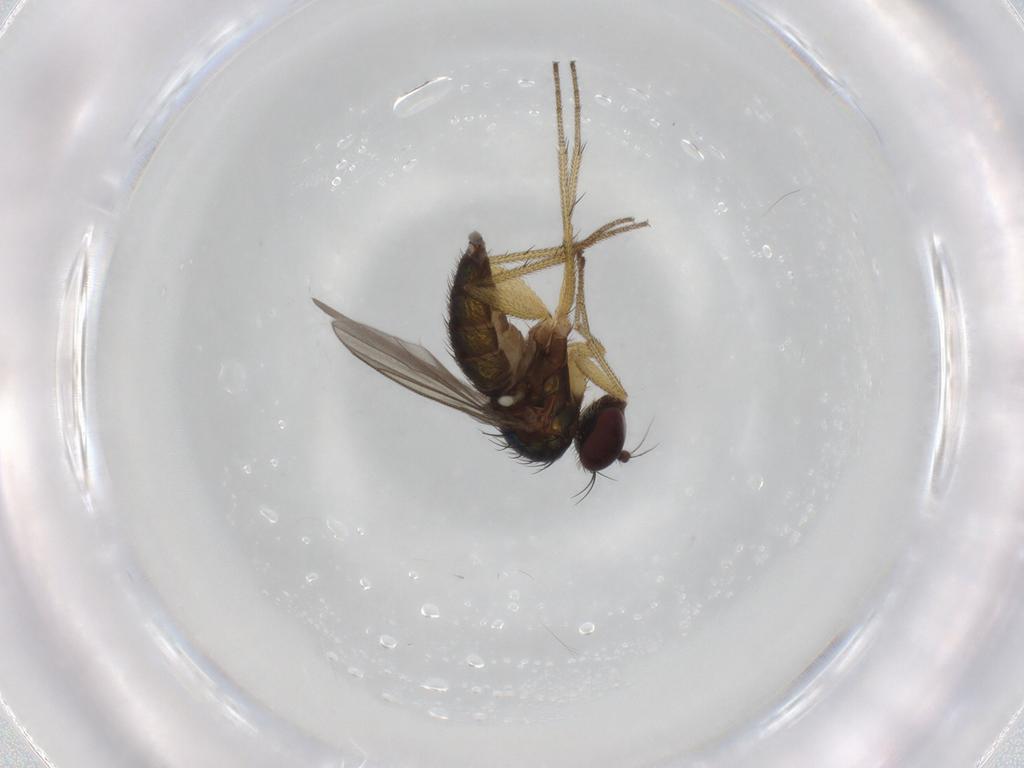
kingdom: Animalia
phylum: Arthropoda
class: Insecta
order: Diptera
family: Dolichopodidae
